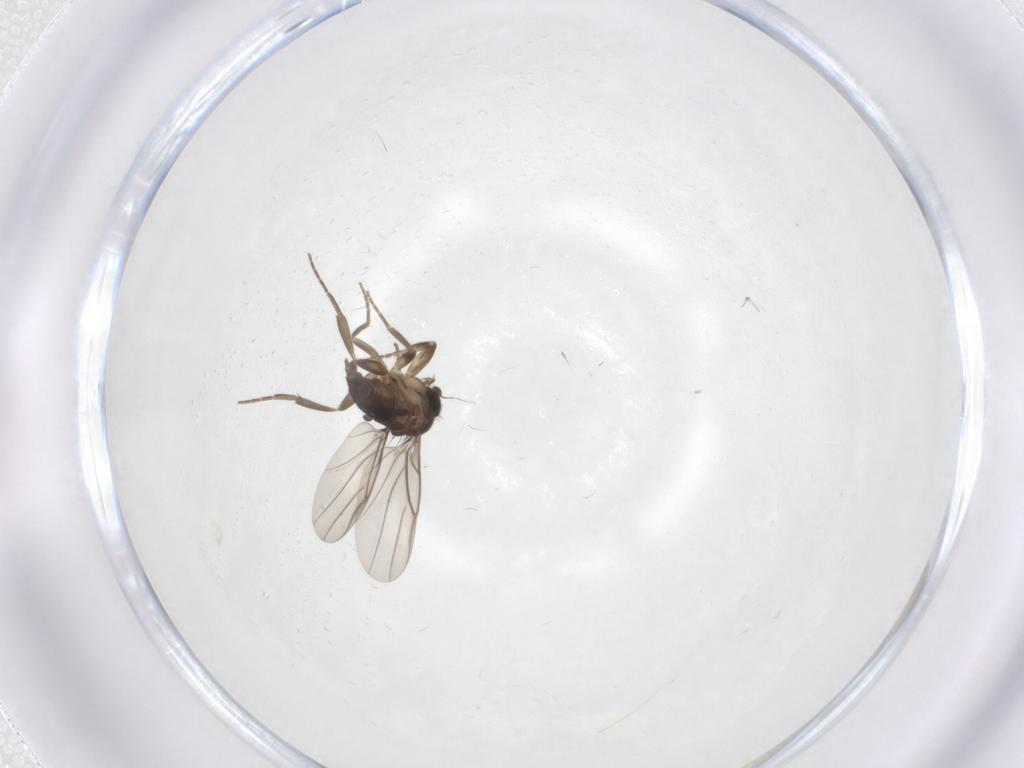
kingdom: Animalia
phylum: Arthropoda
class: Insecta
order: Diptera
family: Phoridae
